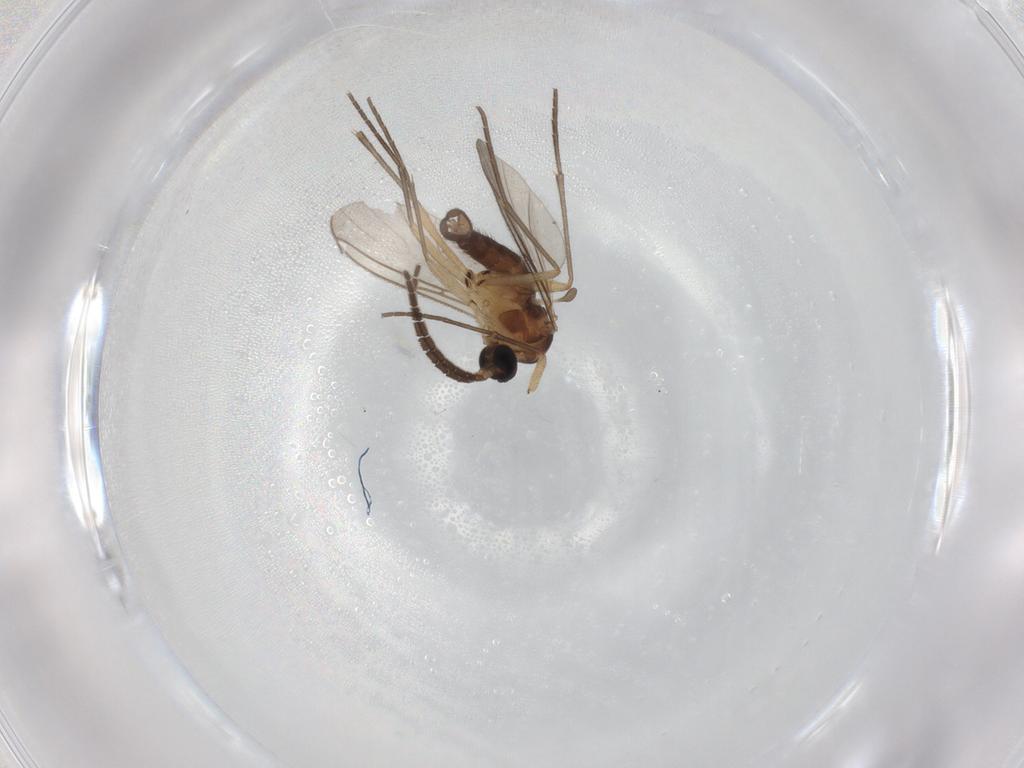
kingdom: Animalia
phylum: Arthropoda
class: Insecta
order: Diptera
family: Sciaridae
